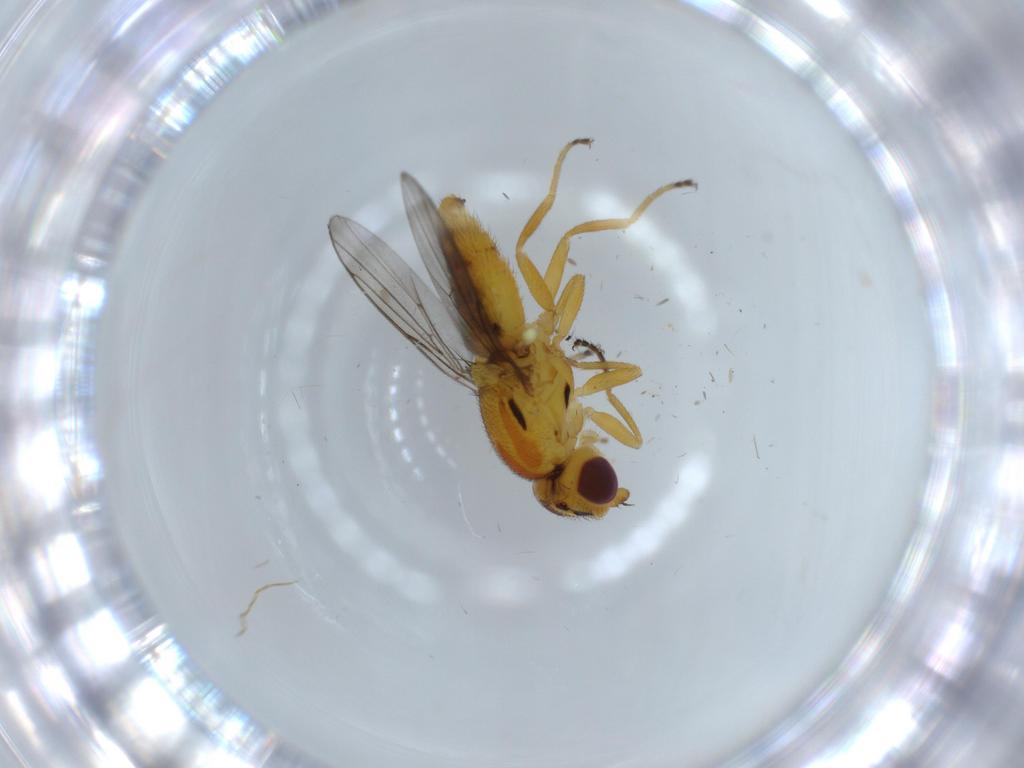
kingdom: Animalia
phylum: Arthropoda
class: Insecta
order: Diptera
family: Chloropidae
